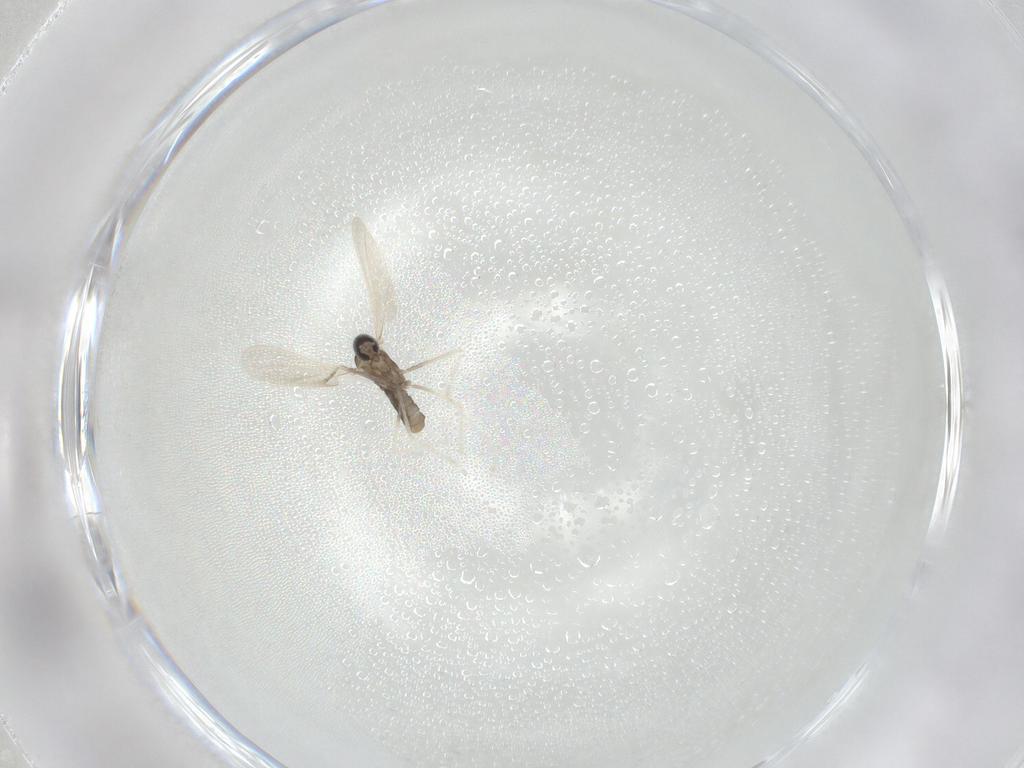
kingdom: Animalia
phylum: Arthropoda
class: Insecta
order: Diptera
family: Cecidomyiidae
